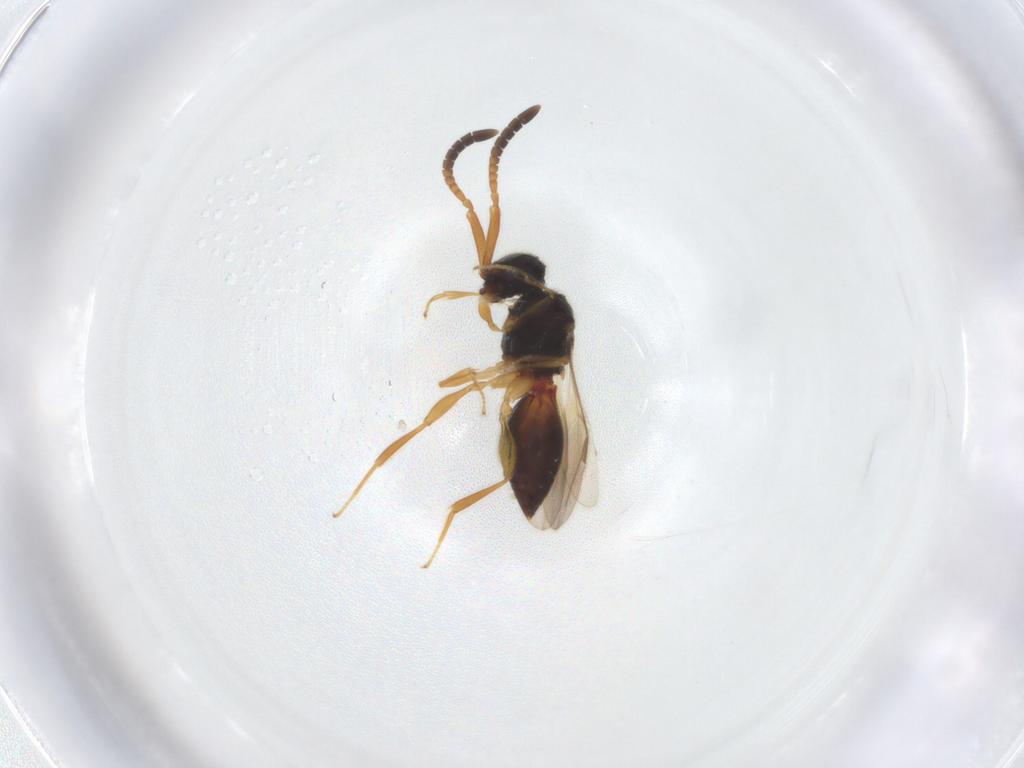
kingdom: Animalia
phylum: Arthropoda
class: Insecta
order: Hymenoptera
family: Megaspilidae
